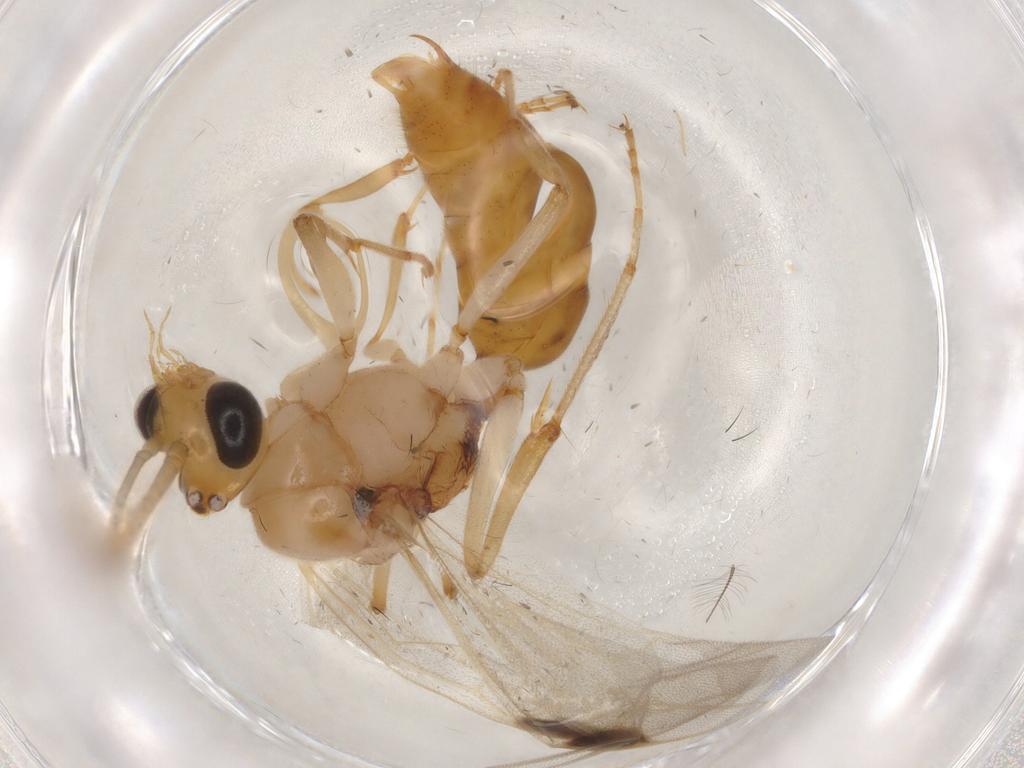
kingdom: Animalia
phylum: Arthropoda
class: Insecta
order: Hymenoptera
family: Formicidae
